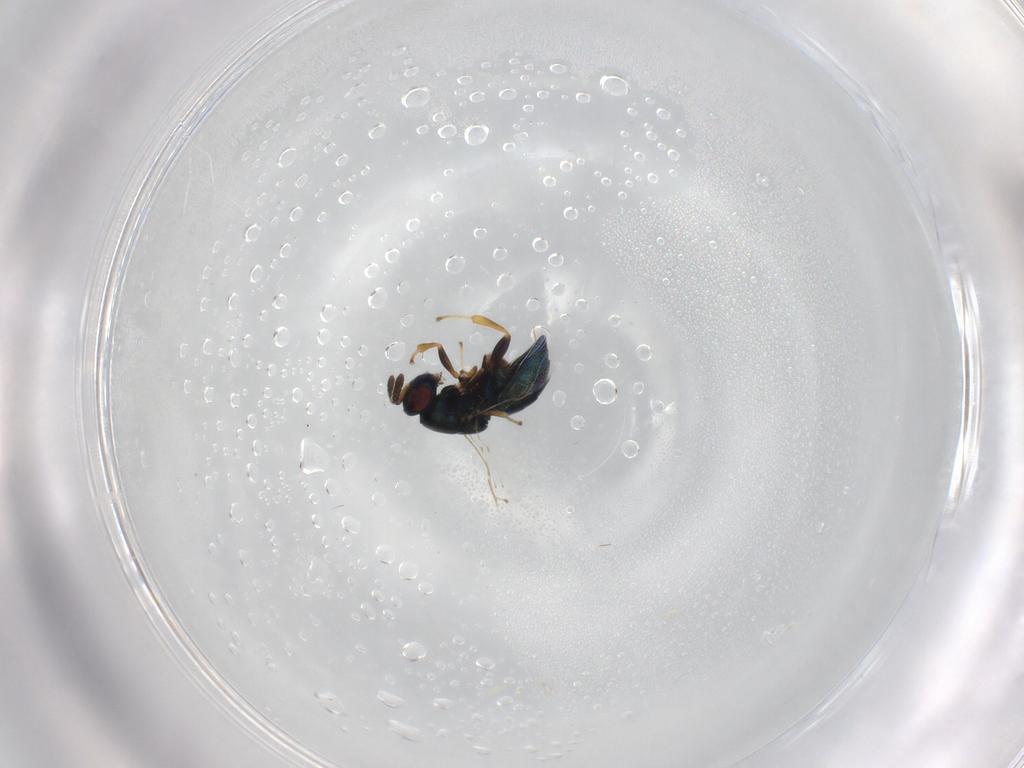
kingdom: Animalia
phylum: Arthropoda
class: Insecta
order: Hymenoptera
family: Pteromalidae
